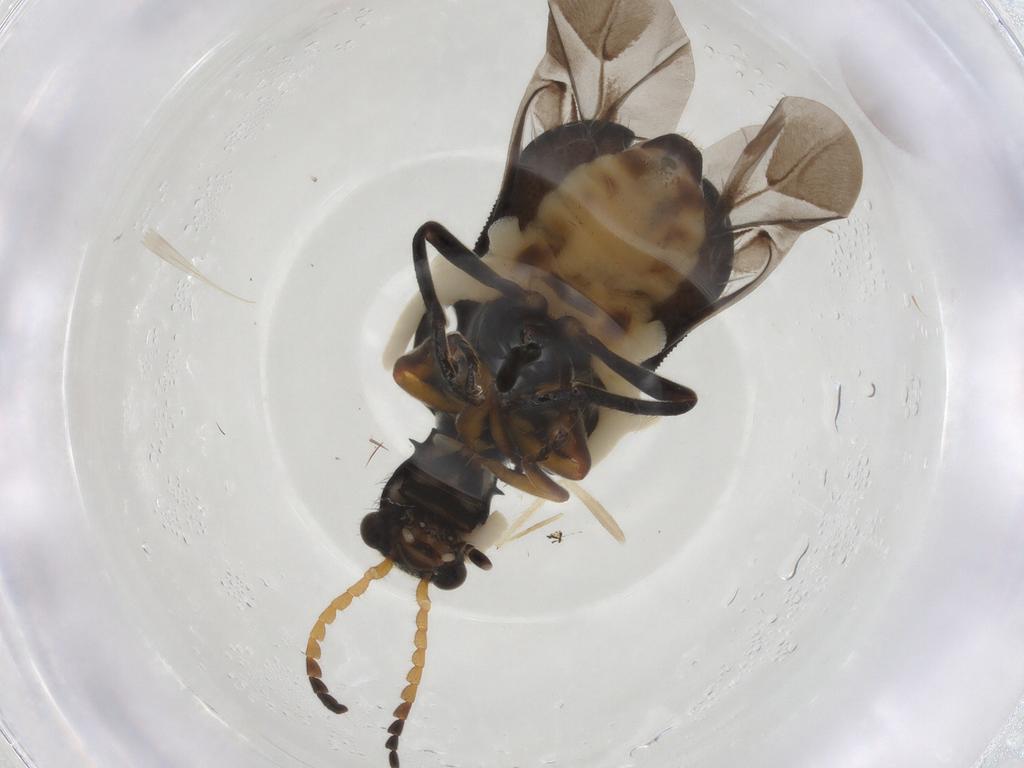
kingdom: Animalia
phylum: Arthropoda
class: Insecta
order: Coleoptera
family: Melyridae
